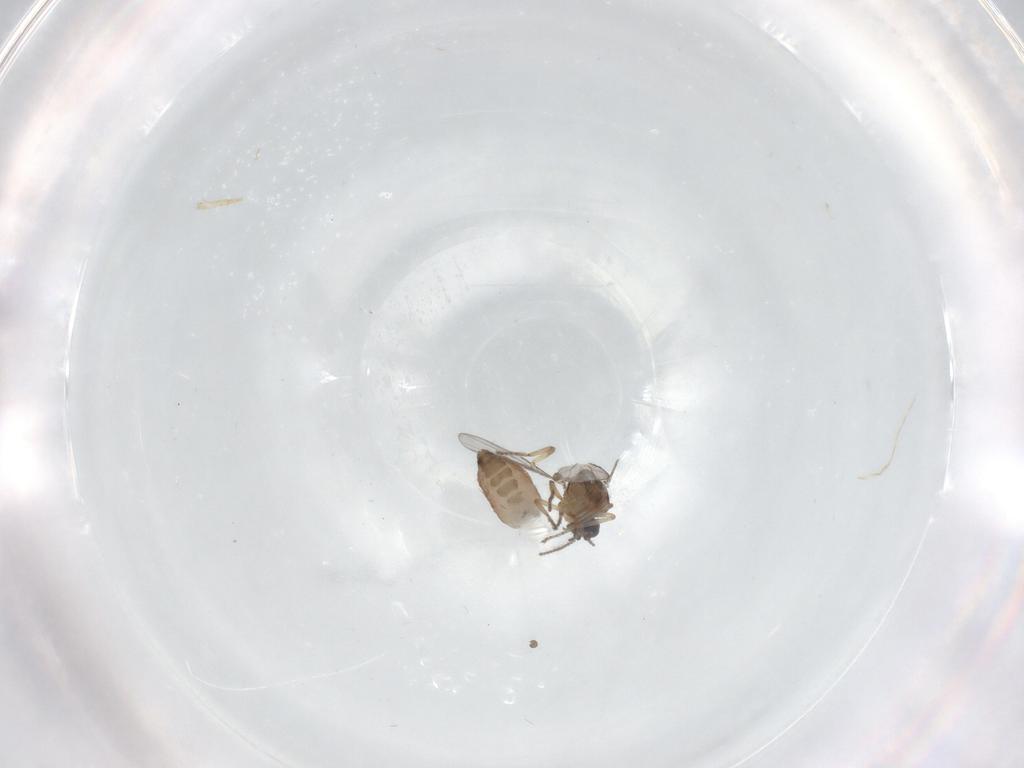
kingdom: Animalia
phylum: Arthropoda
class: Insecta
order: Diptera
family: Ceratopogonidae
